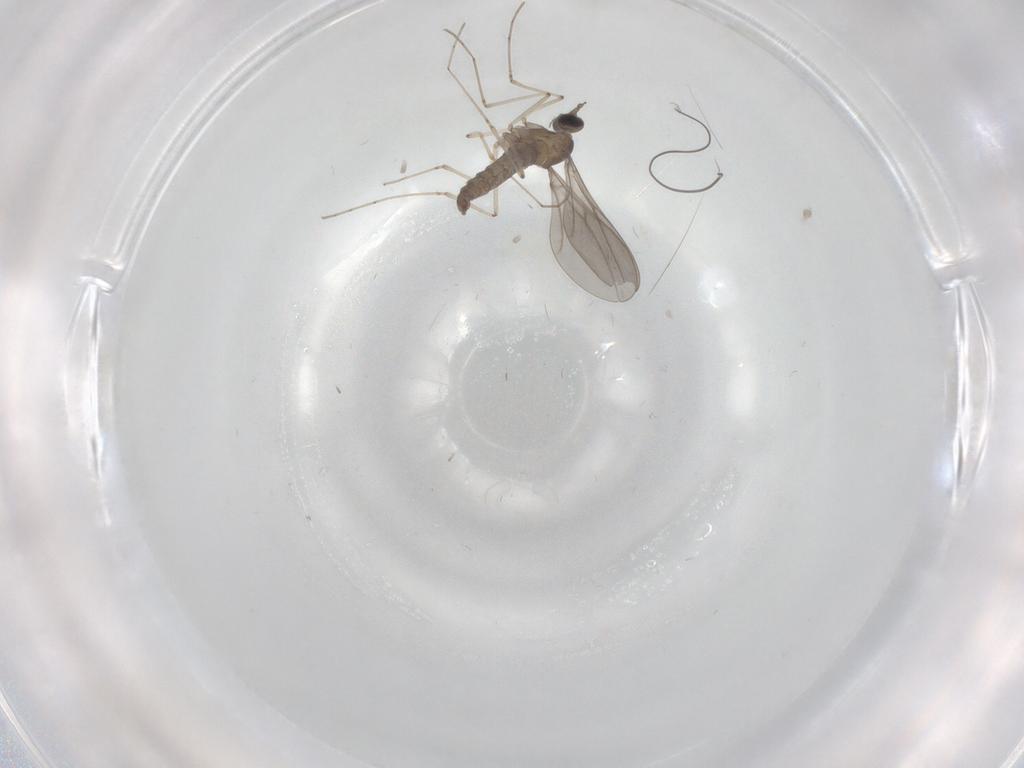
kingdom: Animalia
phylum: Arthropoda
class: Insecta
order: Diptera
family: Cecidomyiidae
